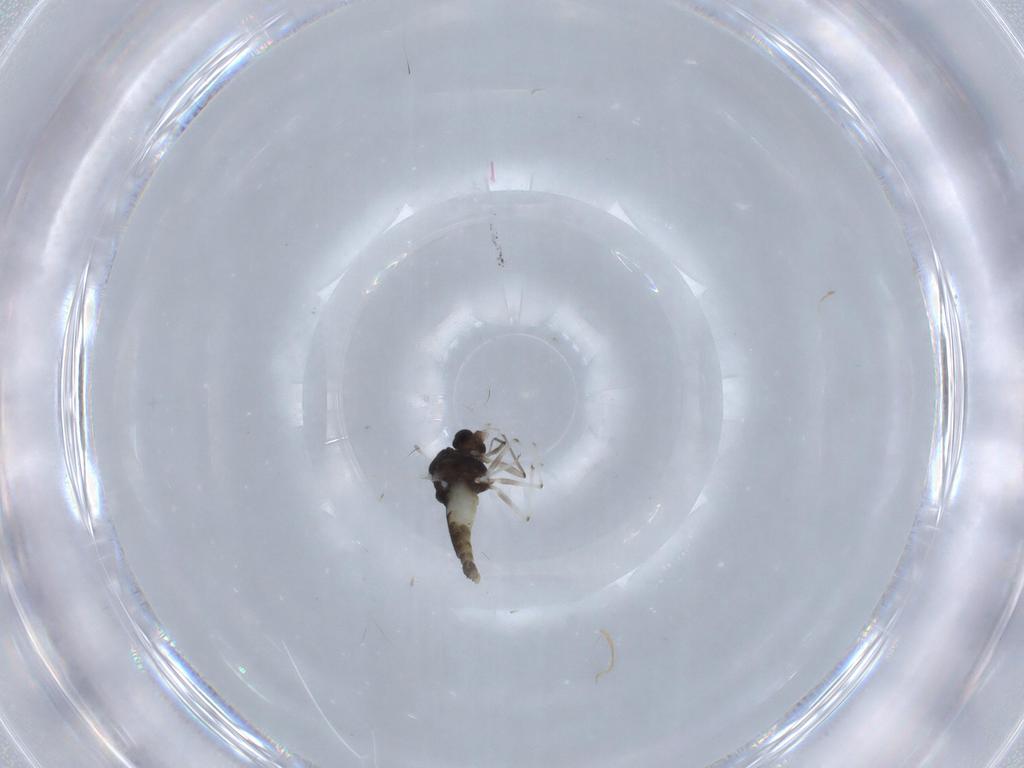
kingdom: Animalia
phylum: Arthropoda
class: Insecta
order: Diptera
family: Chironomidae
